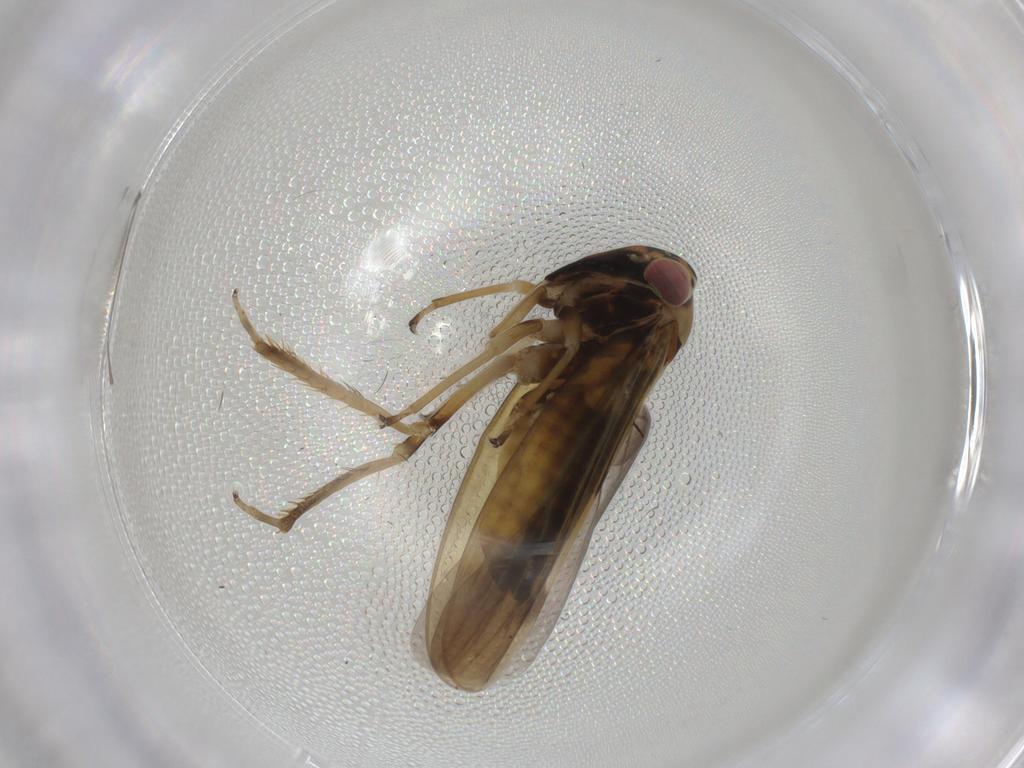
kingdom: Animalia
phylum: Arthropoda
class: Insecta
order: Hemiptera
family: Cicadellidae
